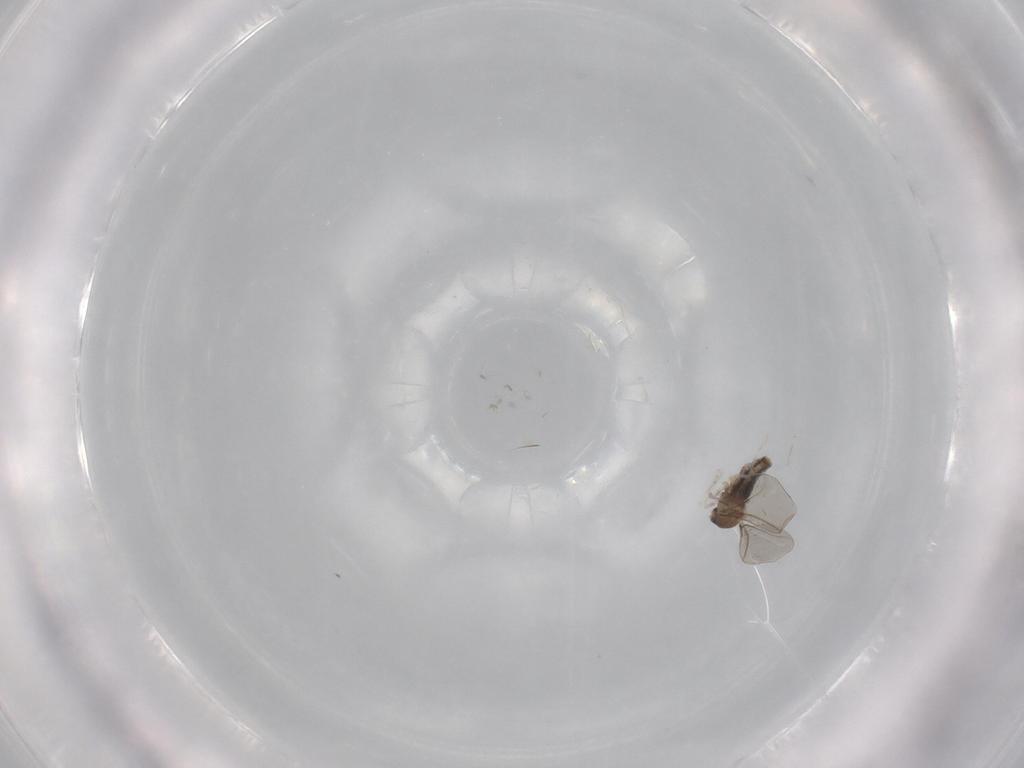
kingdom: Animalia
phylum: Arthropoda
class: Insecta
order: Diptera
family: Cecidomyiidae
